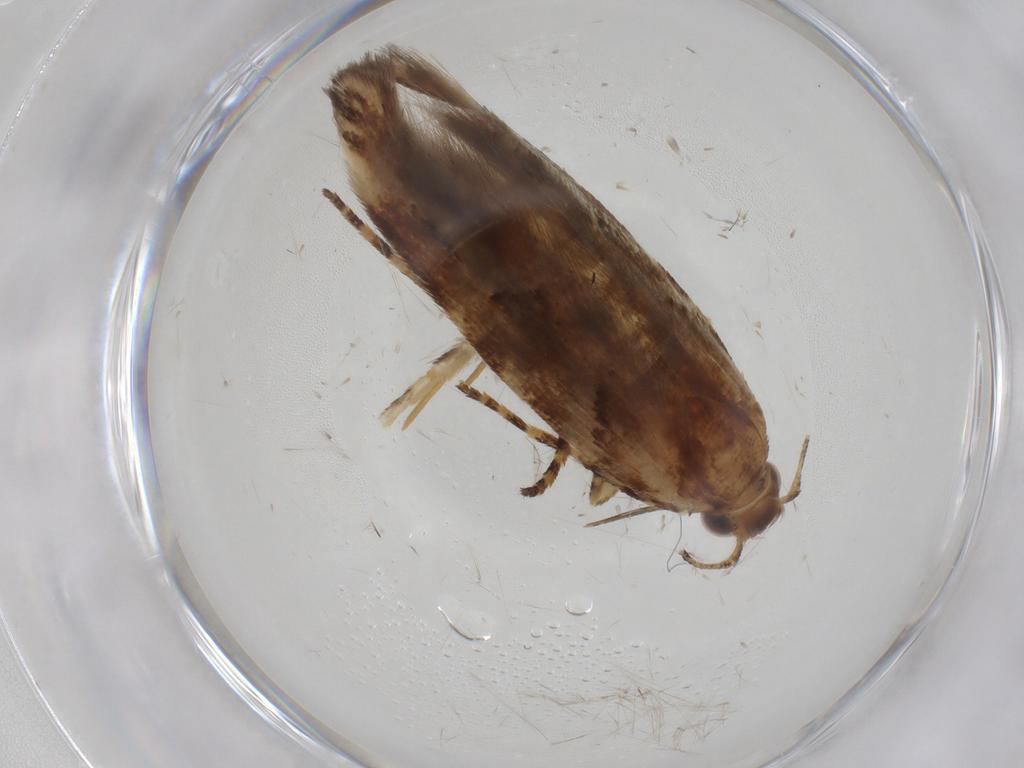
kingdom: Animalia
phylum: Arthropoda
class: Insecta
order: Lepidoptera
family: Gelechiidae
